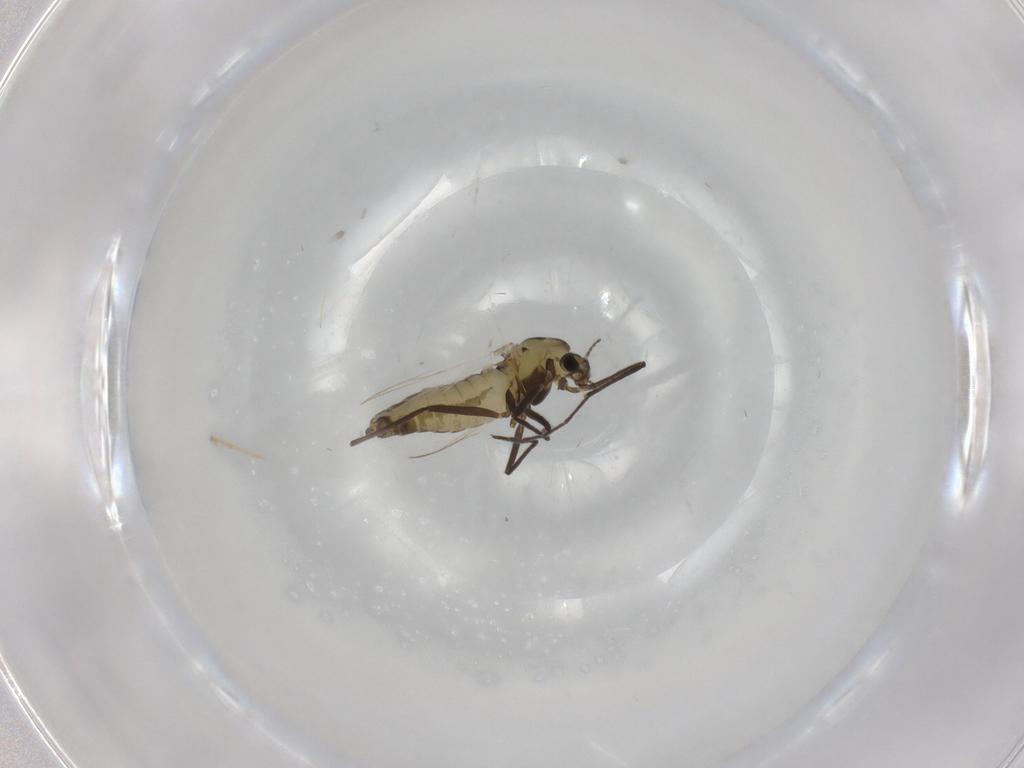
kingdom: Animalia
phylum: Arthropoda
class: Insecta
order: Diptera
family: Chironomidae
